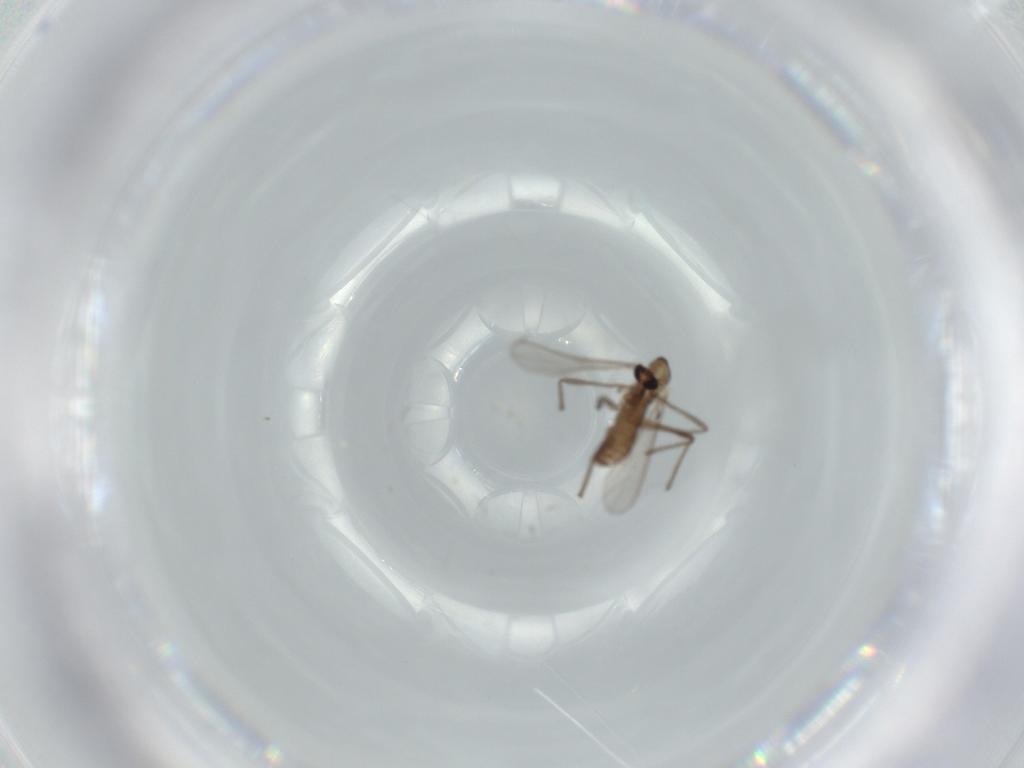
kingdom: Animalia
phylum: Arthropoda
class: Insecta
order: Diptera
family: Chironomidae
